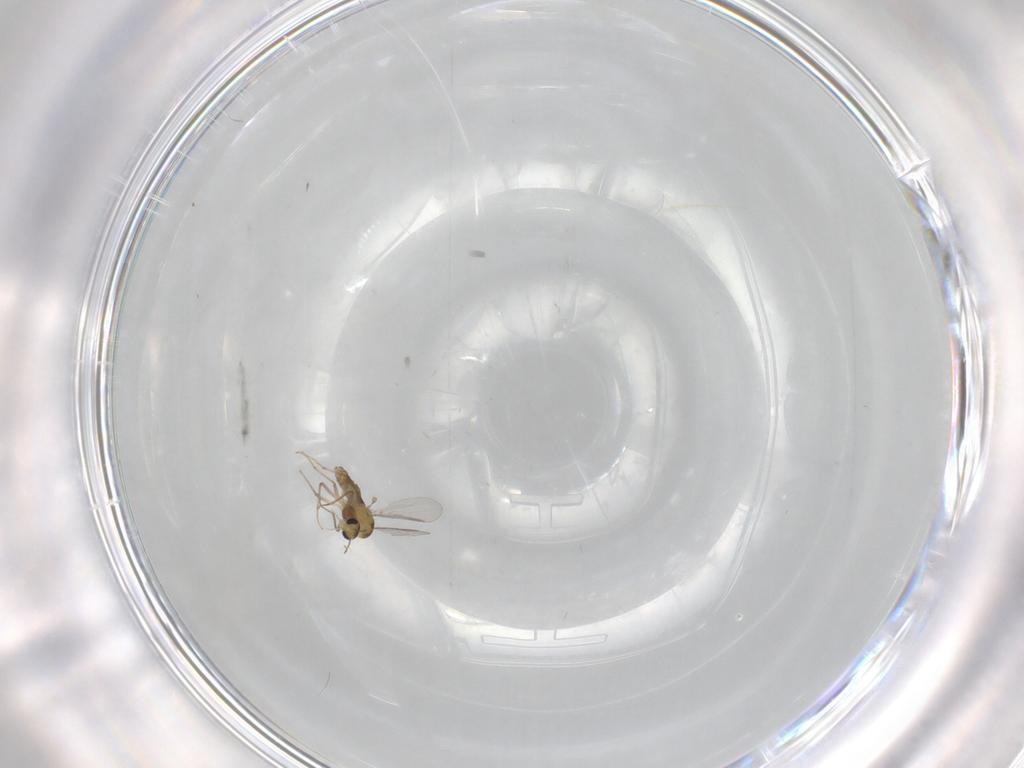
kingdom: Animalia
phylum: Arthropoda
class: Insecta
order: Diptera
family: Chironomidae
